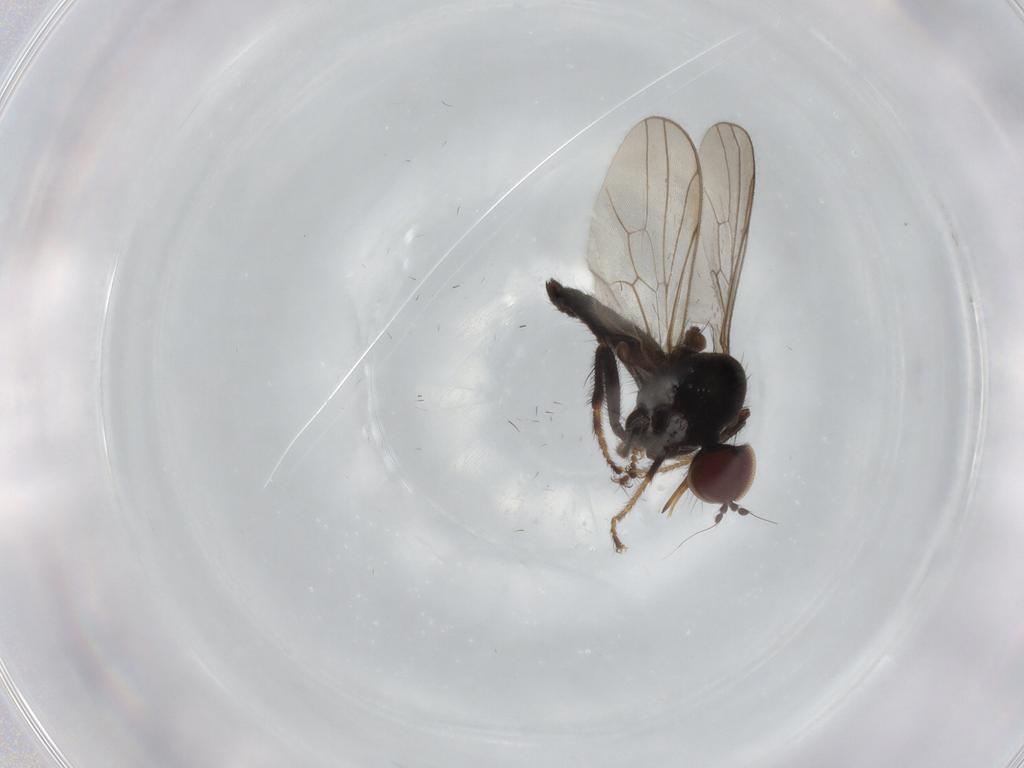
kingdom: Animalia
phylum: Arthropoda
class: Insecta
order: Diptera
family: Hybotidae
